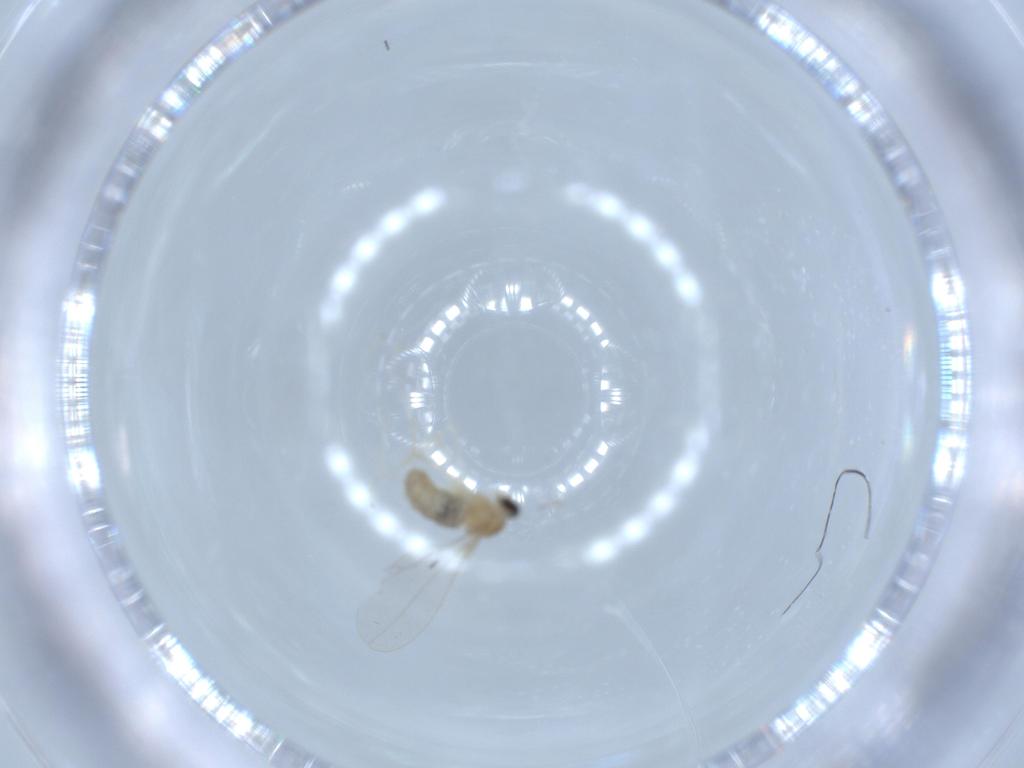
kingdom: Animalia
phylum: Arthropoda
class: Insecta
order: Diptera
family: Cecidomyiidae
